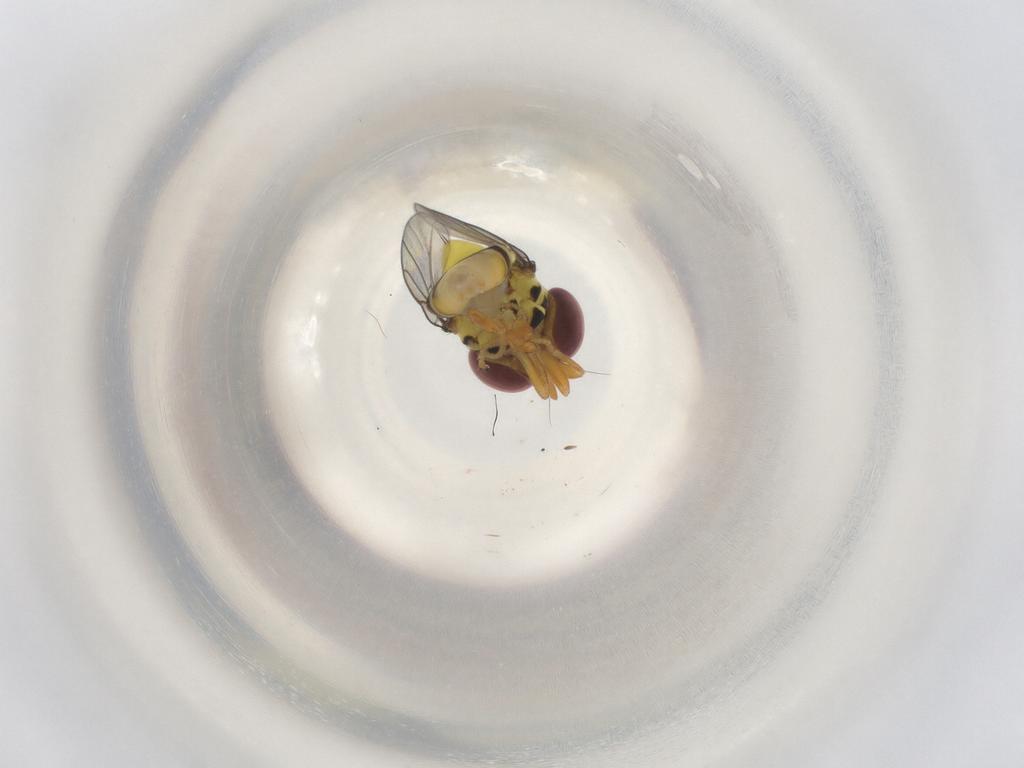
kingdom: Animalia
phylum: Arthropoda
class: Insecta
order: Diptera
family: Chloropidae
